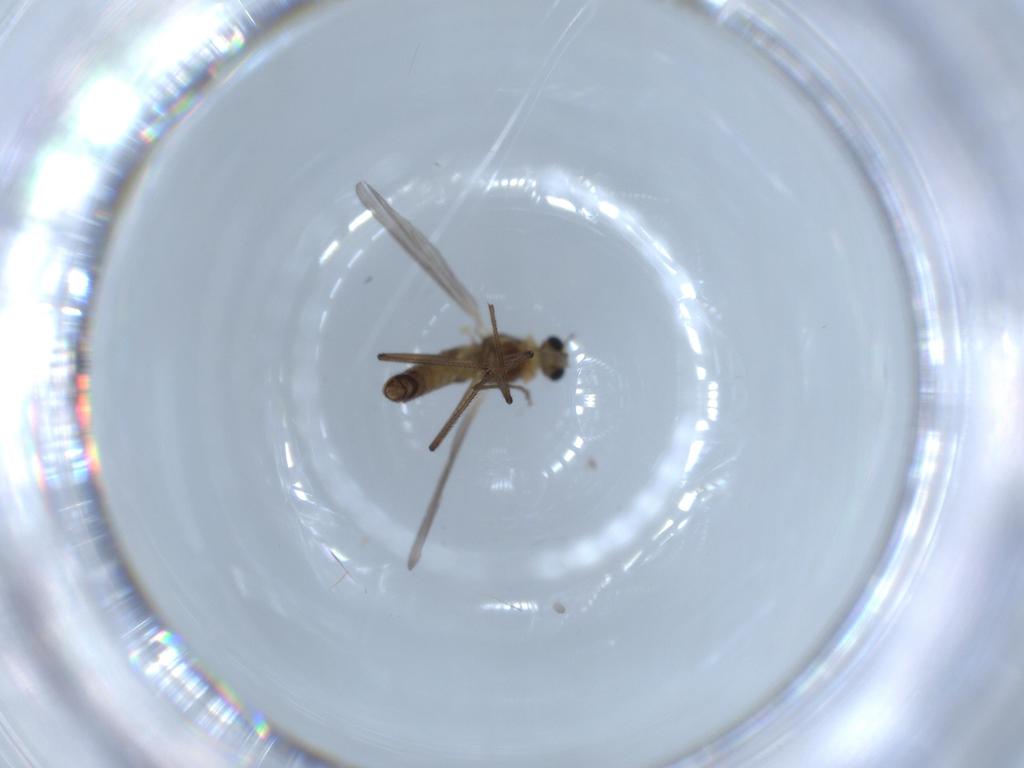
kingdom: Animalia
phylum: Arthropoda
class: Insecta
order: Diptera
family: Chironomidae
